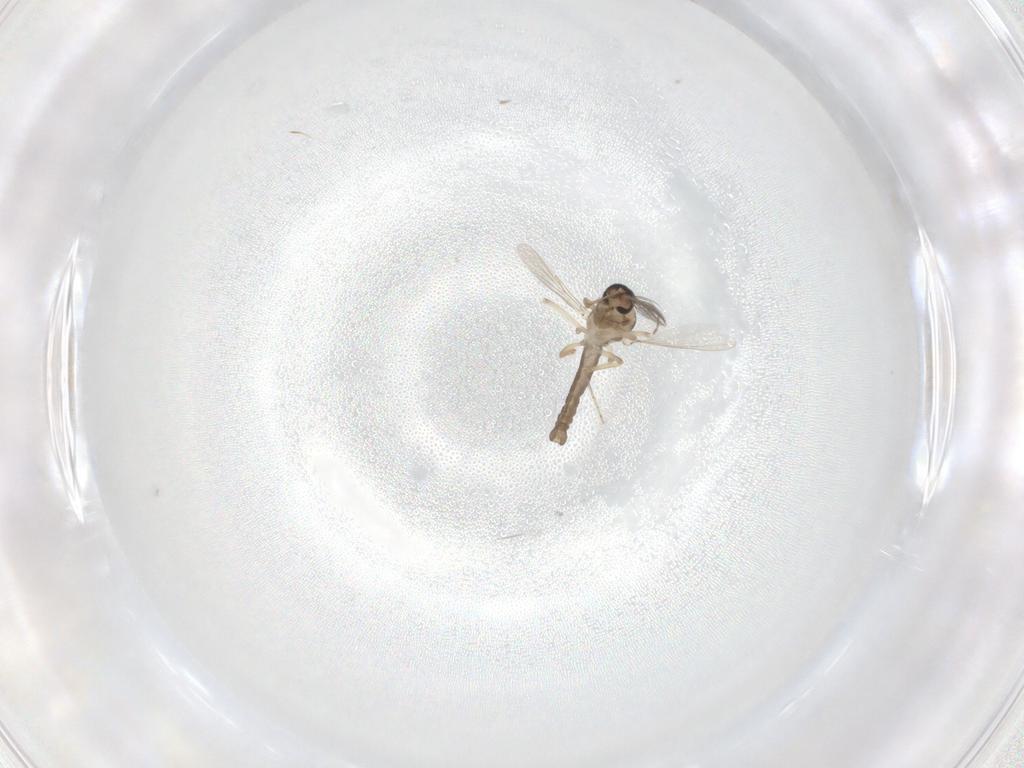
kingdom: Animalia
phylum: Arthropoda
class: Insecta
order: Diptera
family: Ceratopogonidae
